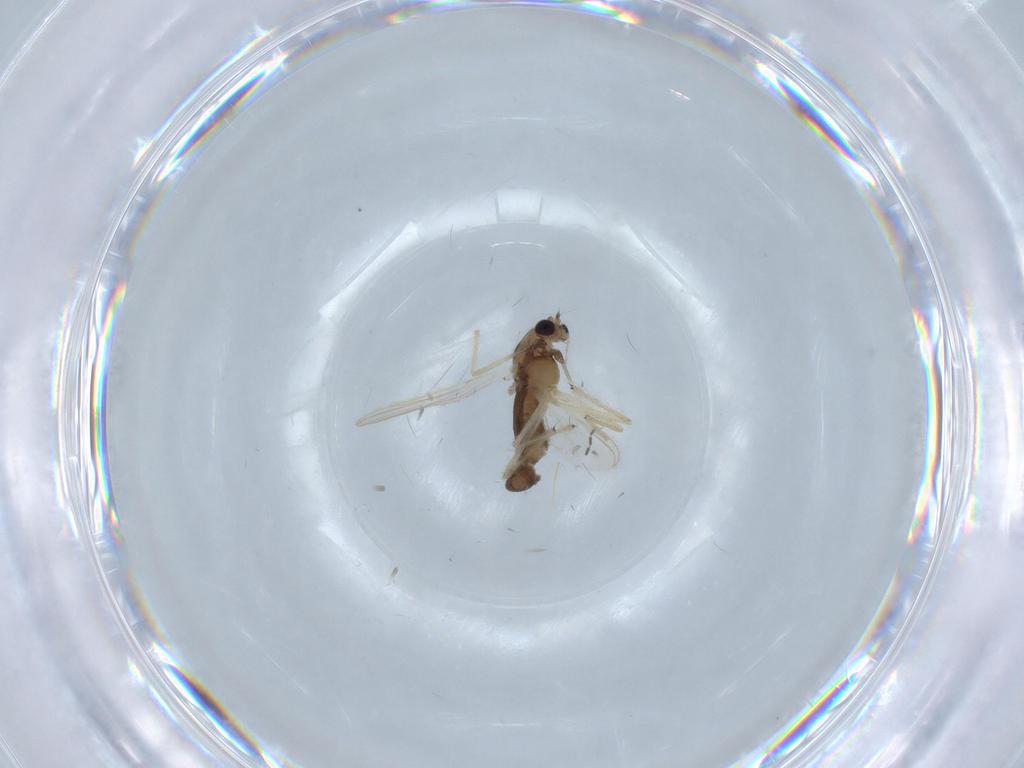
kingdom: Animalia
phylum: Arthropoda
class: Insecta
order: Diptera
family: Chironomidae
